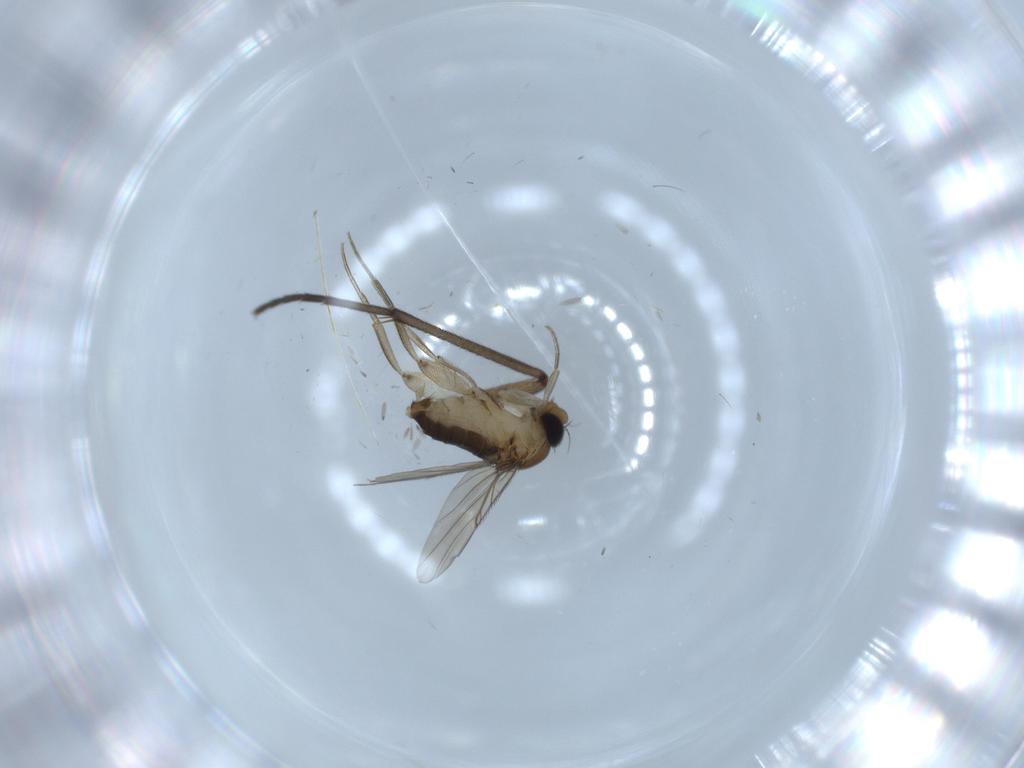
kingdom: Animalia
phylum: Arthropoda
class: Insecta
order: Diptera
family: Phoridae
